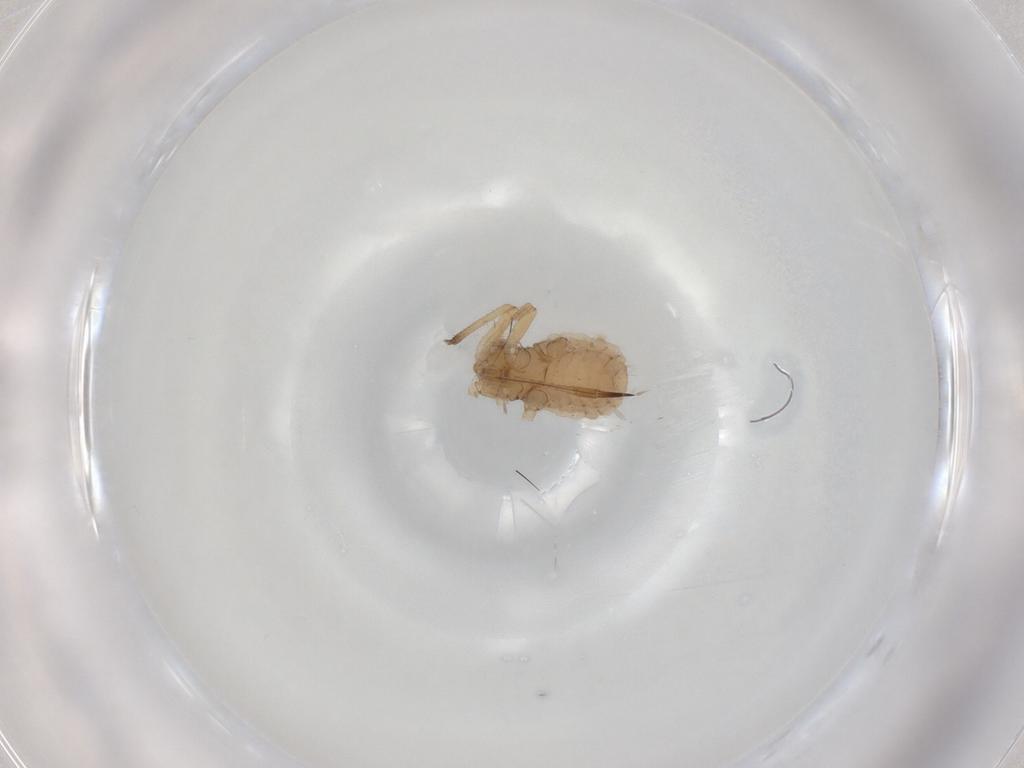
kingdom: Animalia
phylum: Arthropoda
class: Insecta
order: Hemiptera
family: Aphididae
